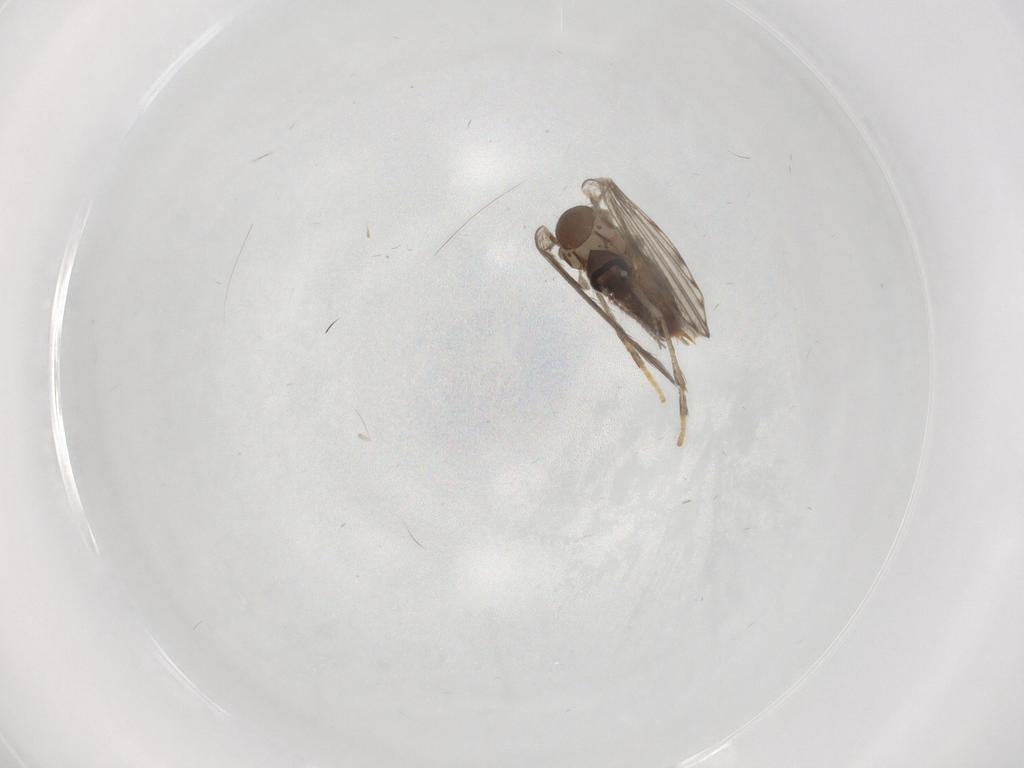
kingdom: Animalia
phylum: Arthropoda
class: Insecta
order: Diptera
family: Psychodidae
